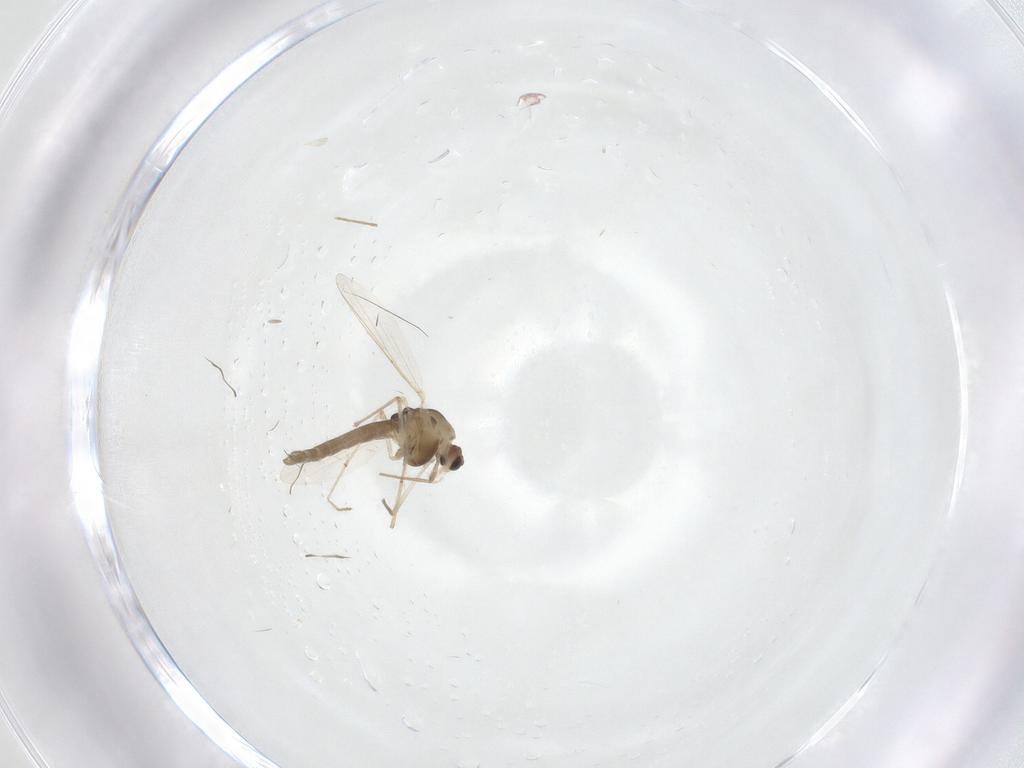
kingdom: Animalia
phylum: Arthropoda
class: Insecta
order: Diptera
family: Chironomidae
